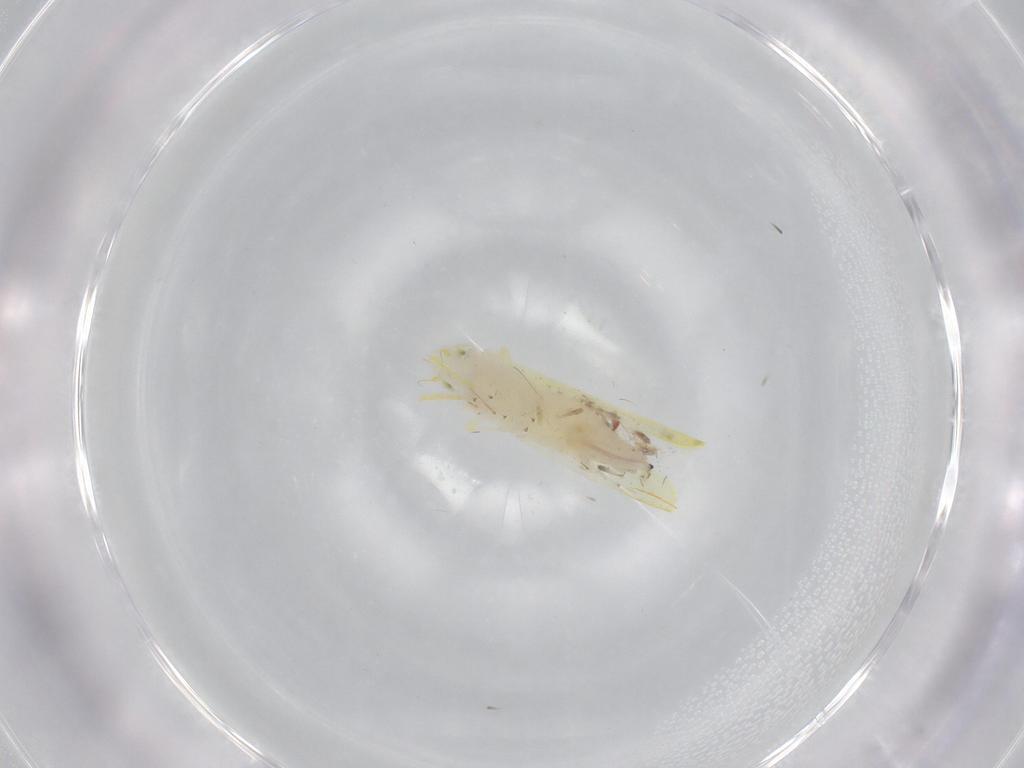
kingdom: Animalia
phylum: Arthropoda
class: Insecta
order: Hemiptera
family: Cicadellidae
